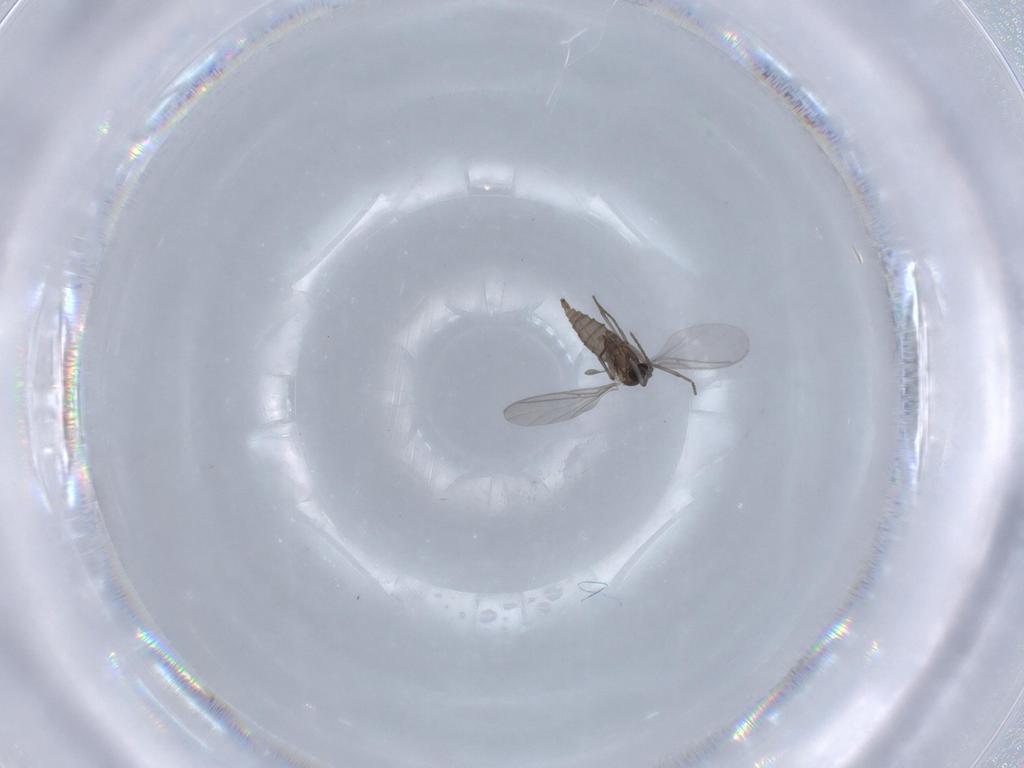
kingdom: Animalia
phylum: Arthropoda
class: Insecta
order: Diptera
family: Sciaridae
